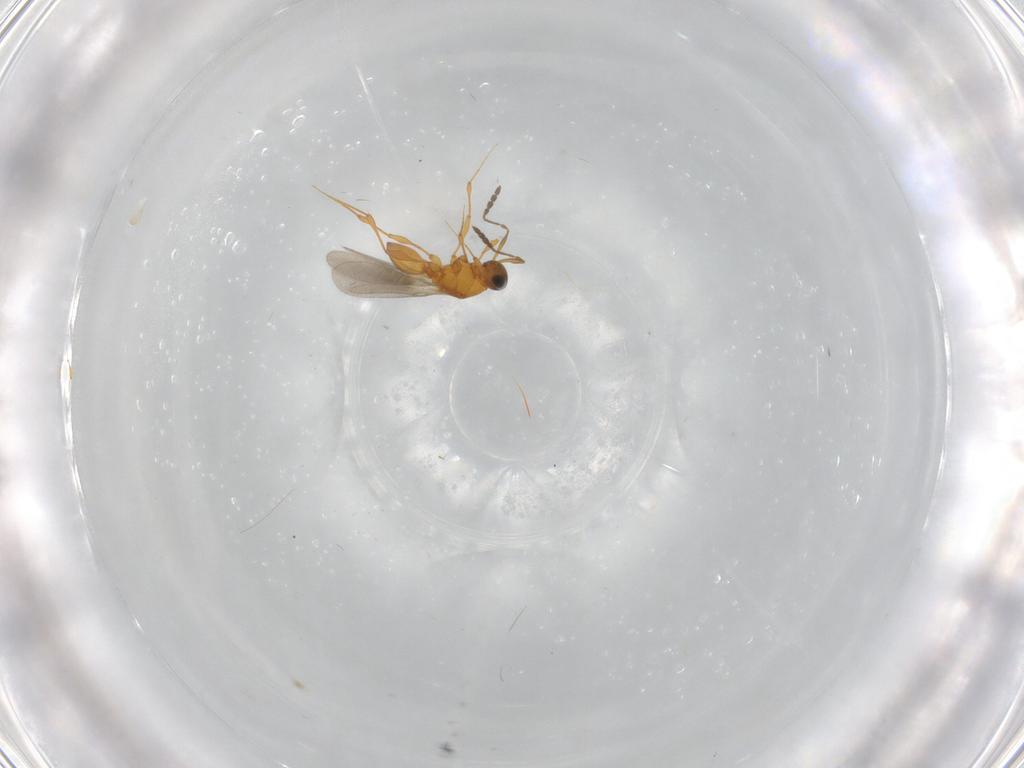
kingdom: Animalia
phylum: Arthropoda
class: Insecta
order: Hymenoptera
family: Platygastridae
